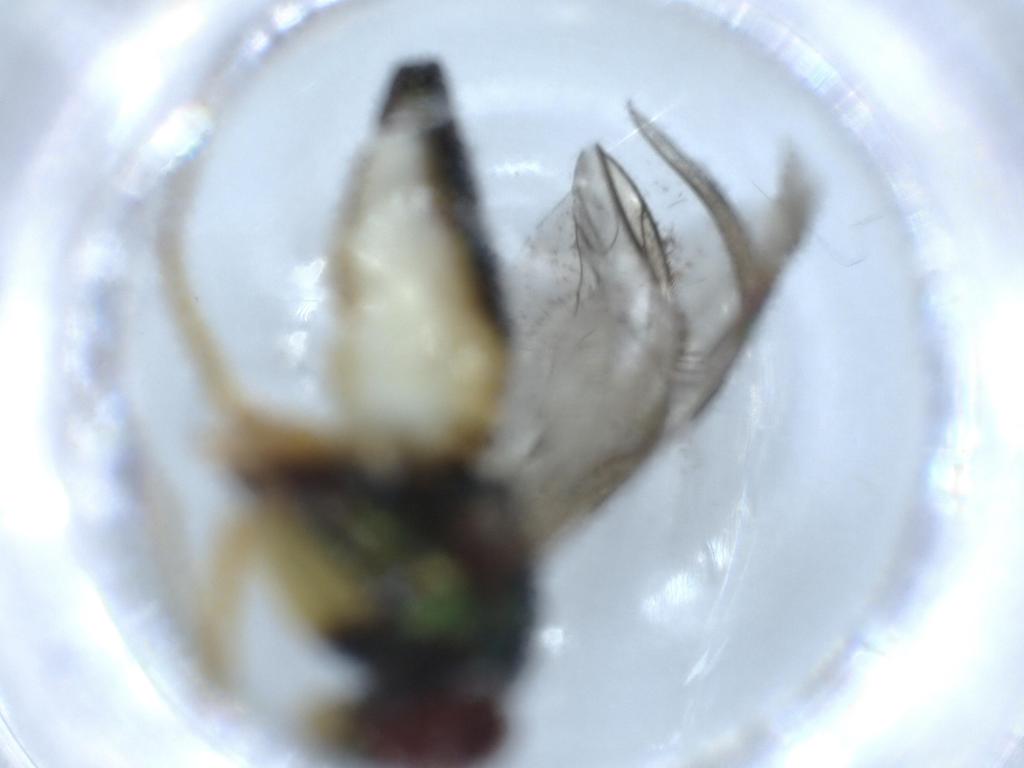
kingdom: Animalia
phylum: Arthropoda
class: Insecta
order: Diptera
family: Dolichopodidae
